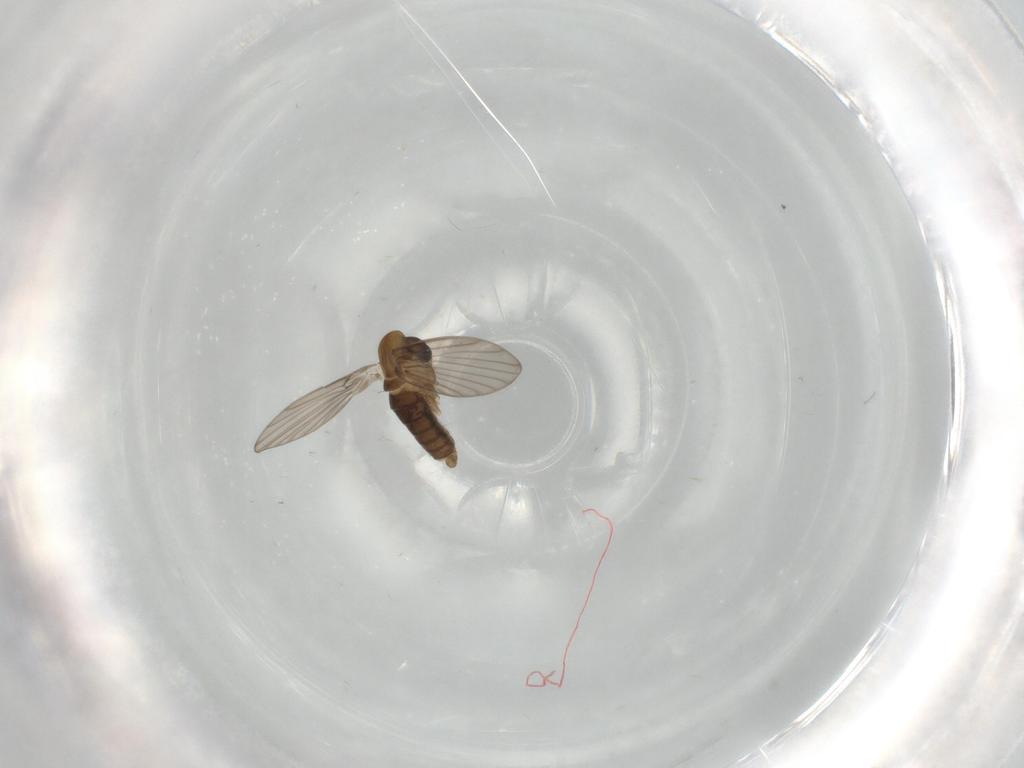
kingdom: Animalia
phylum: Arthropoda
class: Insecta
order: Diptera
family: Psychodidae
